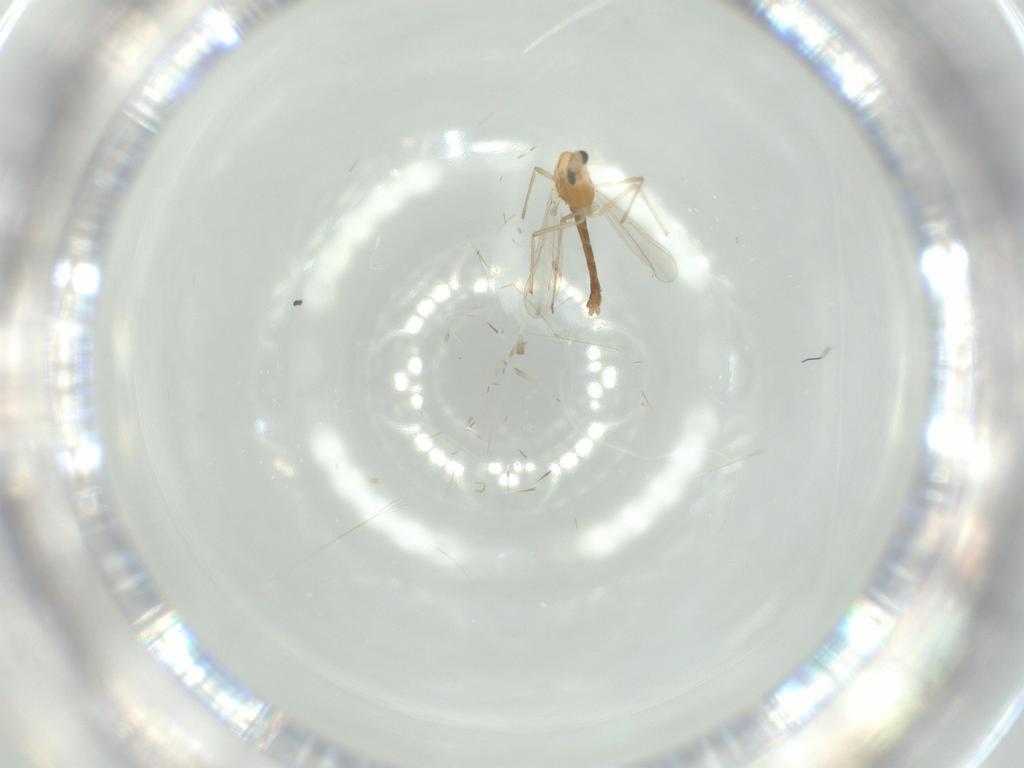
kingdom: Animalia
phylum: Arthropoda
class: Insecta
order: Diptera
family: Chironomidae
